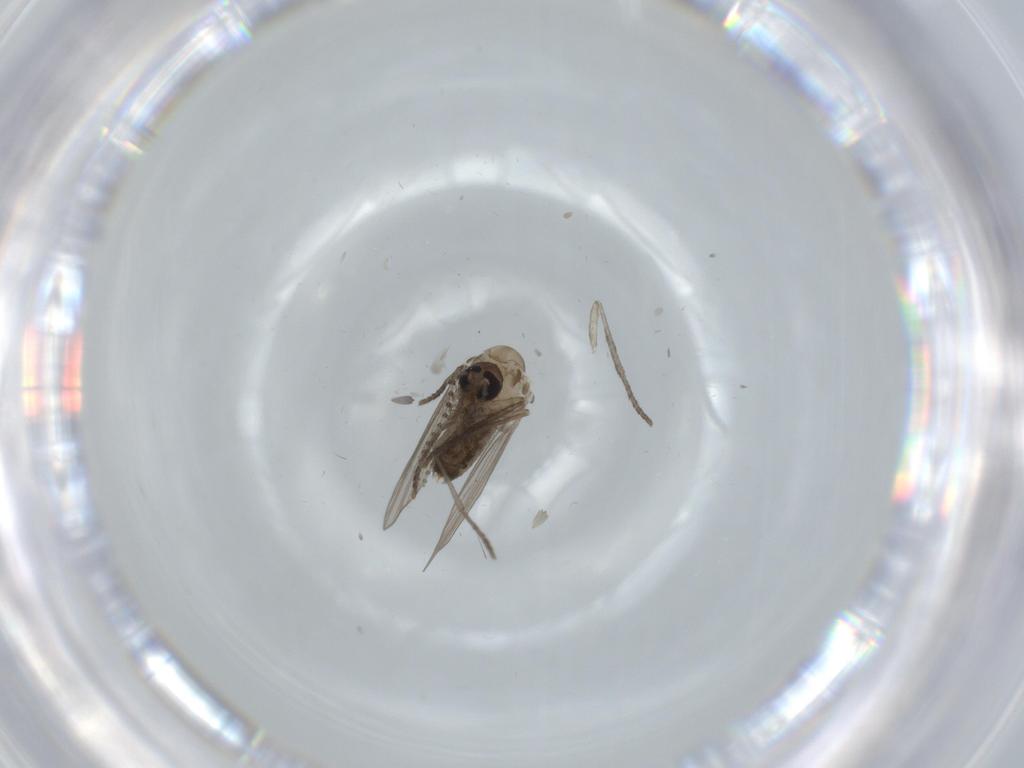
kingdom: Animalia
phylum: Arthropoda
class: Insecta
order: Diptera
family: Psychodidae
